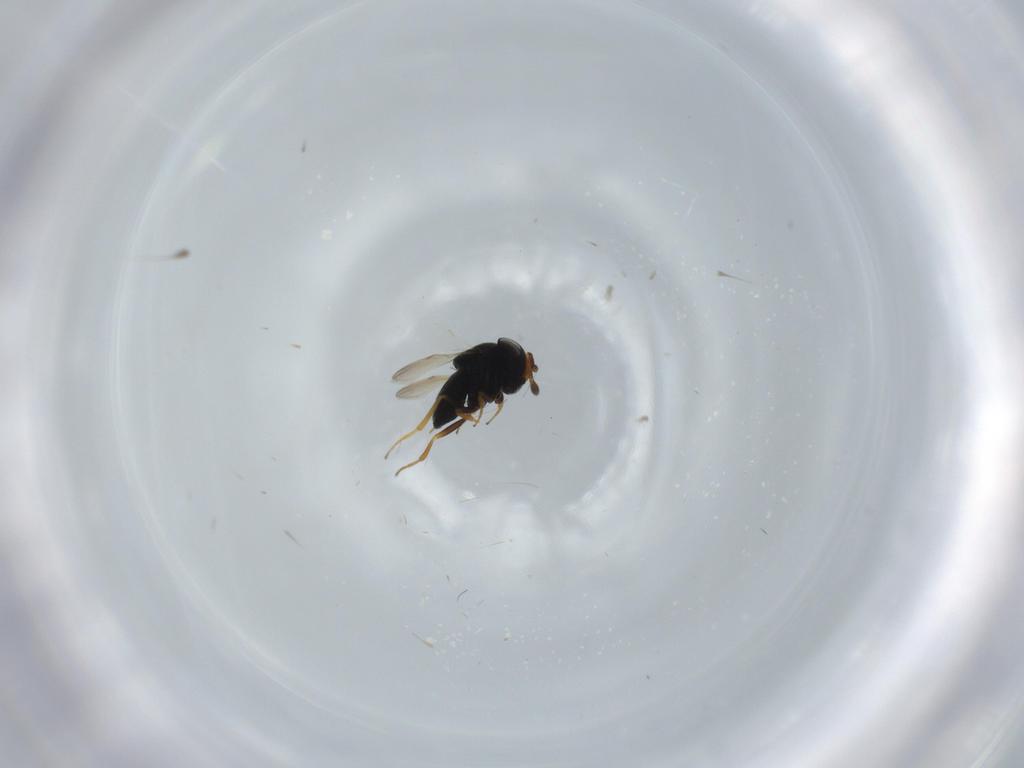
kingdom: Animalia
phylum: Arthropoda
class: Insecta
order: Hymenoptera
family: Scelionidae
